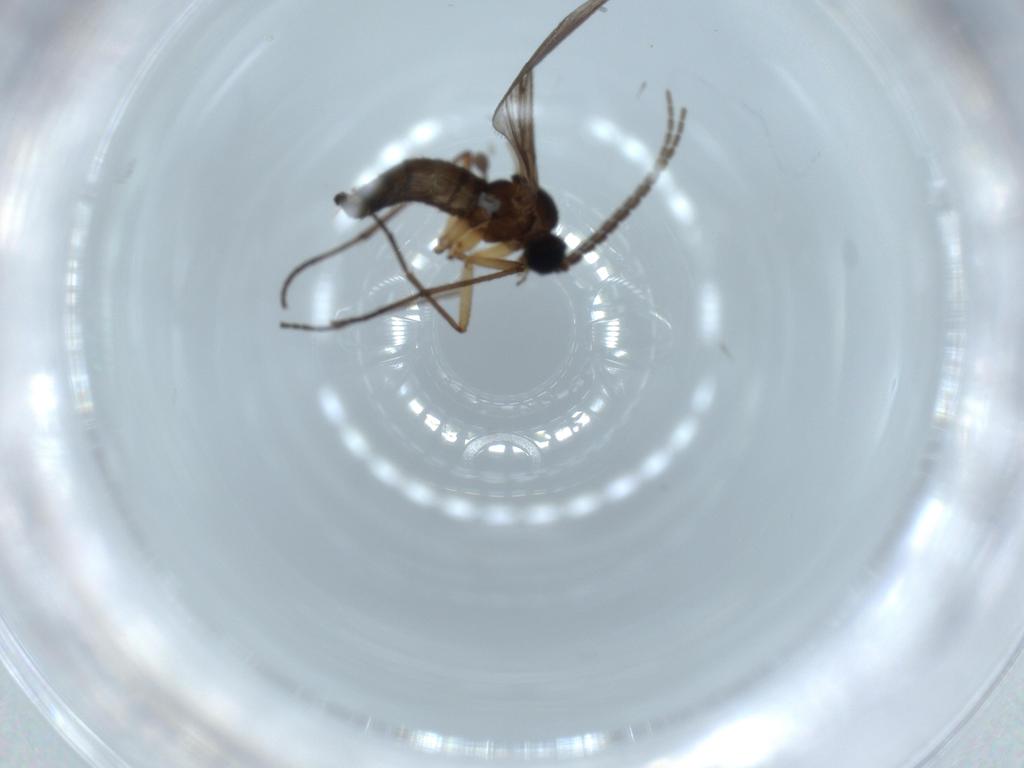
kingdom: Animalia
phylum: Arthropoda
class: Insecta
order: Diptera
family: Sciaridae
